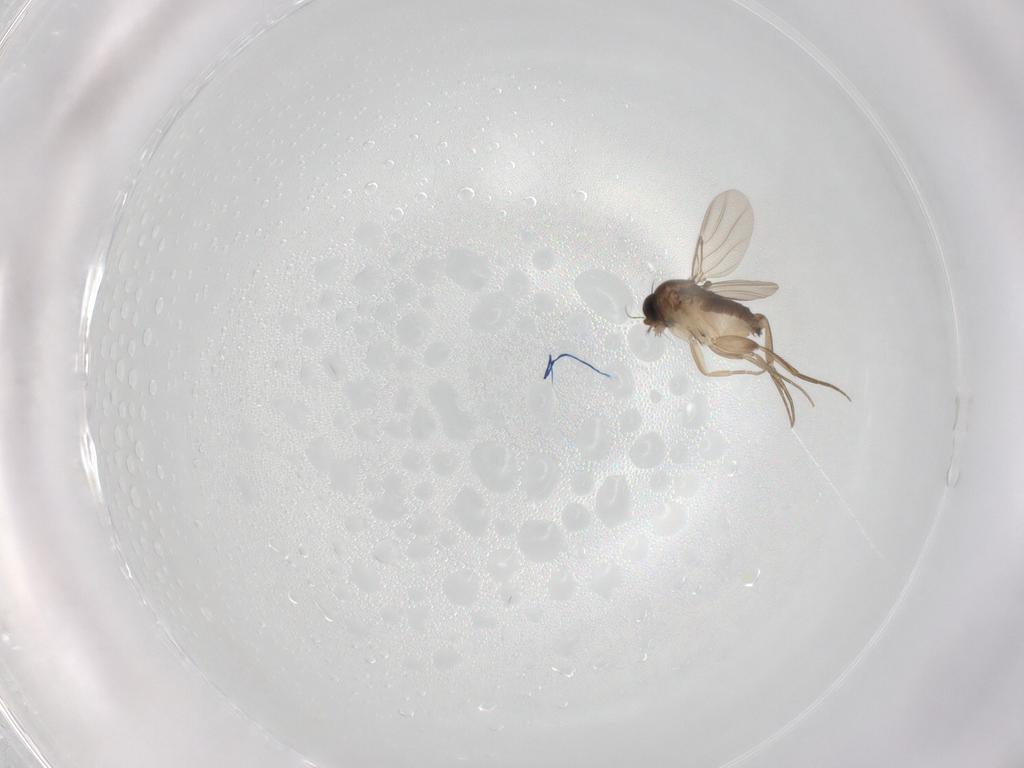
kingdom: Animalia
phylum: Arthropoda
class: Insecta
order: Diptera
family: Phoridae
